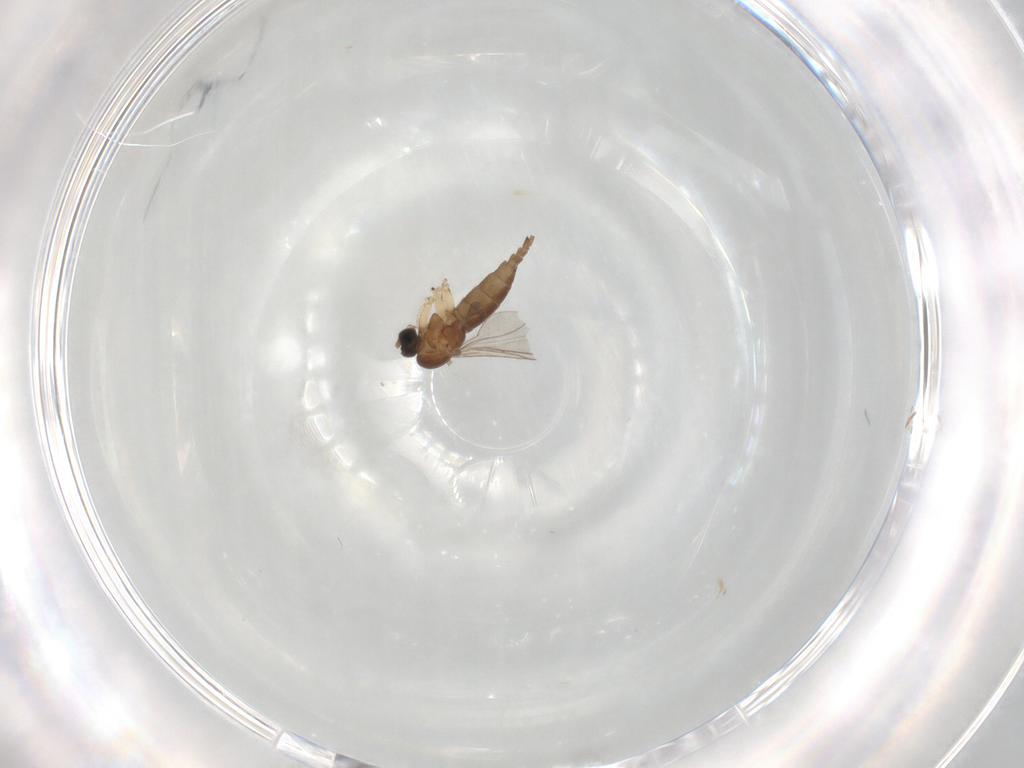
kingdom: Animalia
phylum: Arthropoda
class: Insecta
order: Diptera
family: Sciaridae
